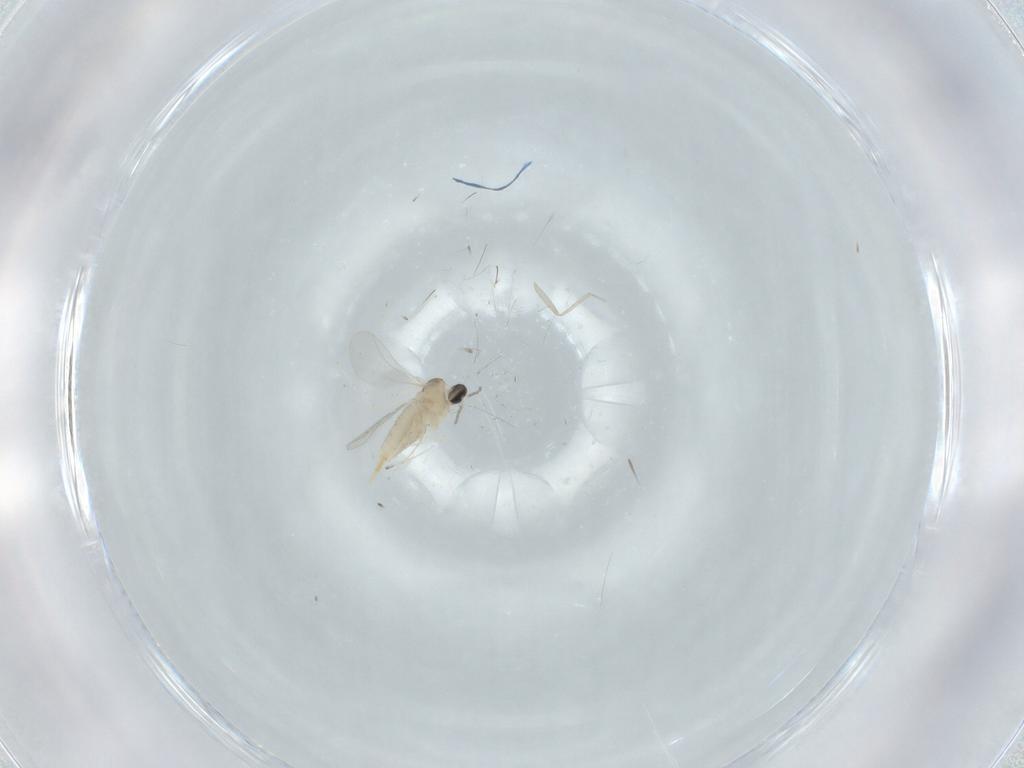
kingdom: Animalia
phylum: Arthropoda
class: Insecta
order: Diptera
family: Cecidomyiidae
